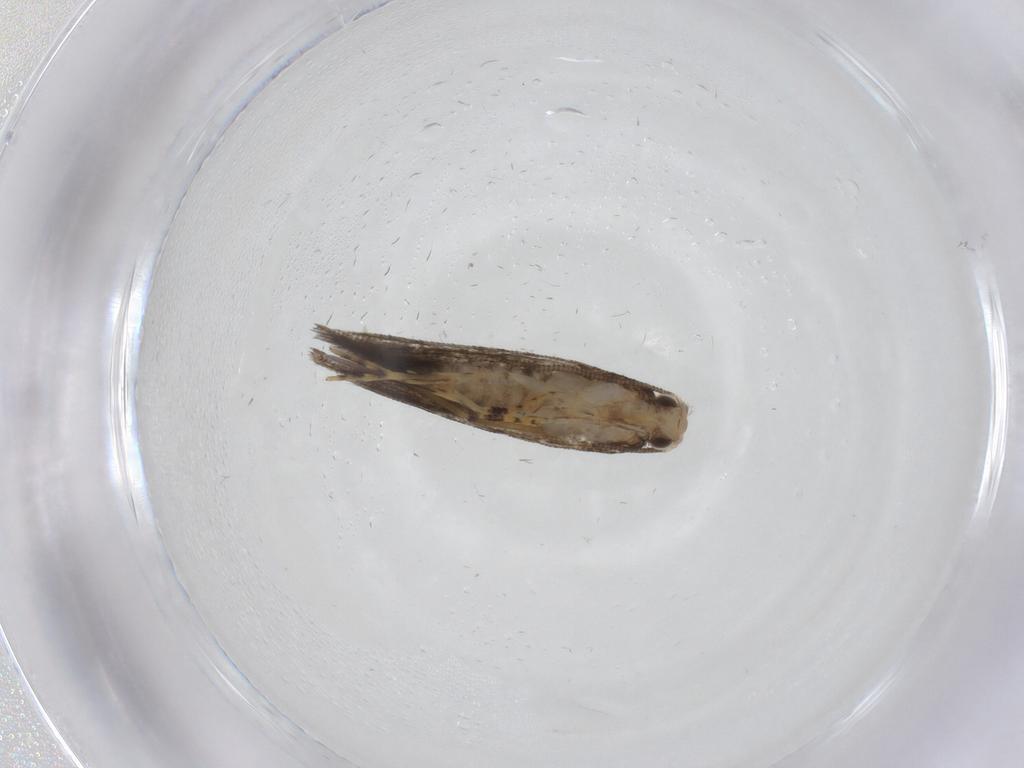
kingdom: Animalia
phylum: Arthropoda
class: Insecta
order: Lepidoptera
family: Tineidae
